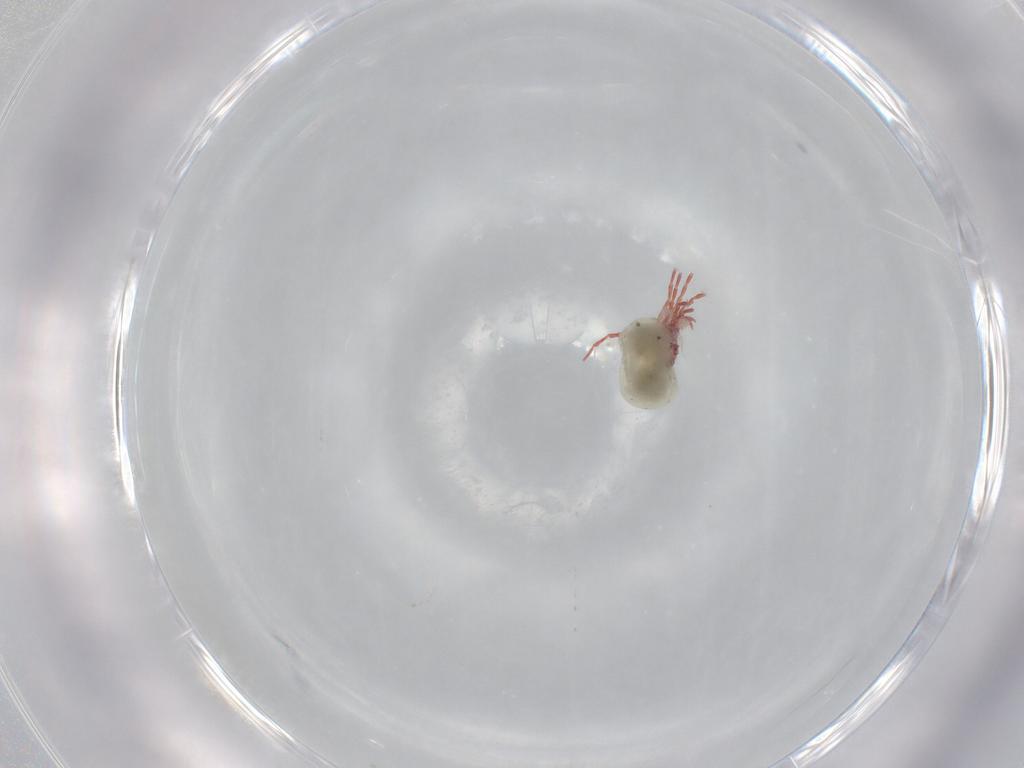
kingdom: Animalia
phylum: Arthropoda
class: Arachnida
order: Trombidiformes
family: Pionidae
